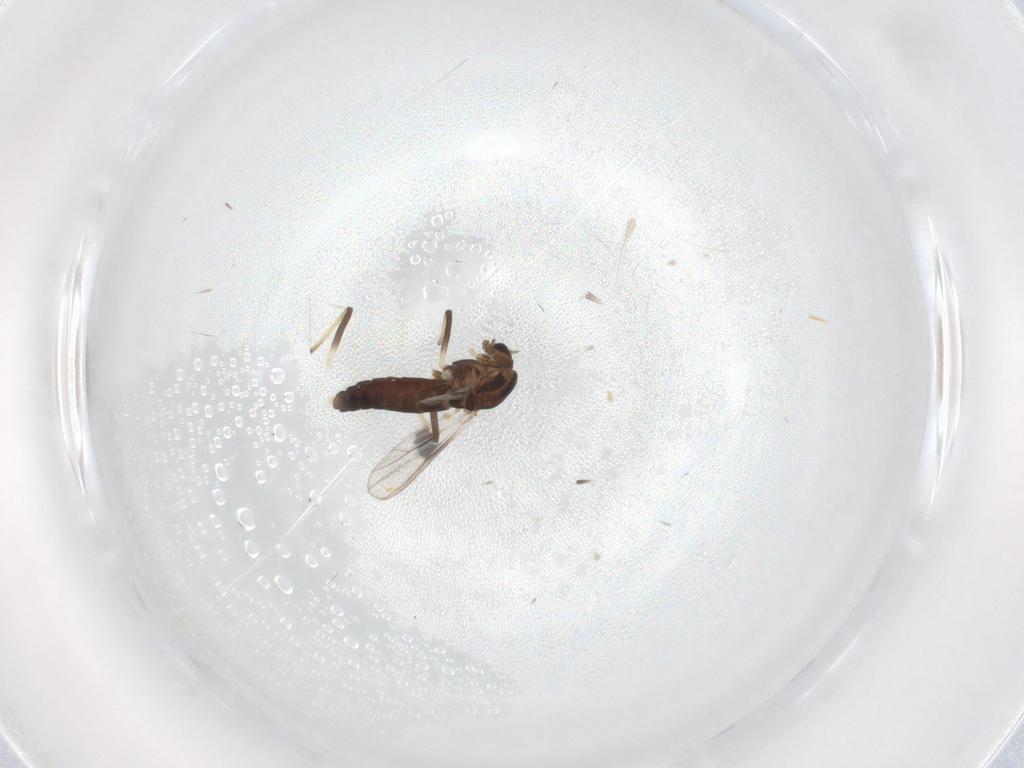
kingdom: Animalia
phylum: Arthropoda
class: Insecta
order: Diptera
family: Chironomidae
